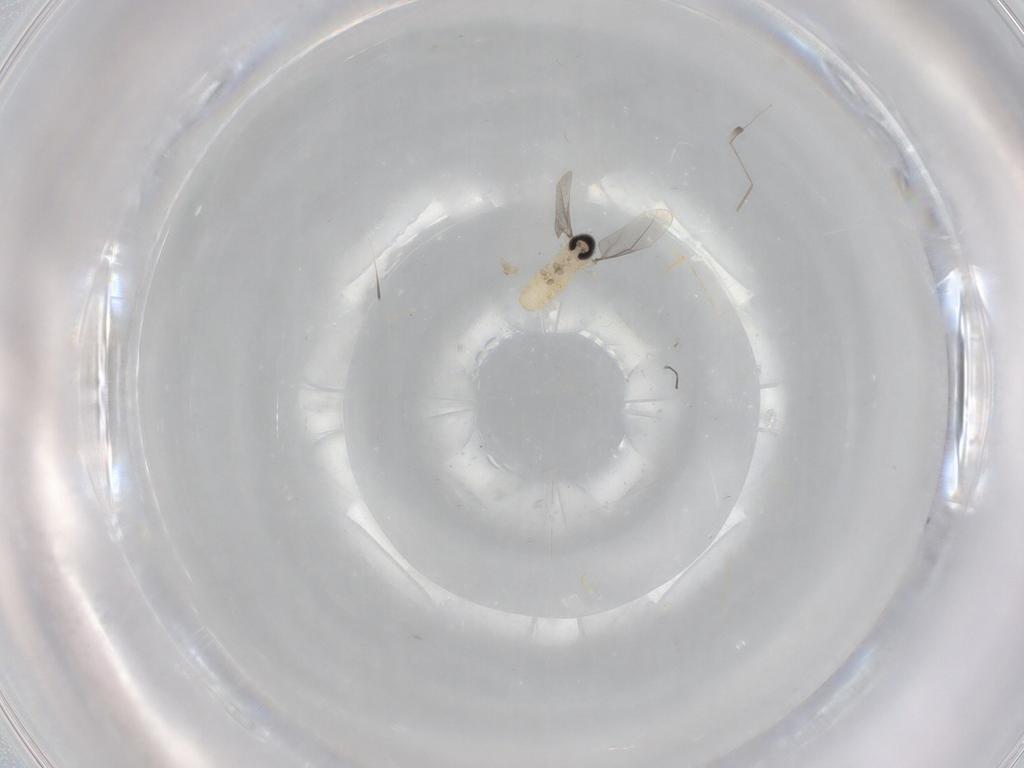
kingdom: Animalia
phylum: Arthropoda
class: Insecta
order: Diptera
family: Cecidomyiidae
